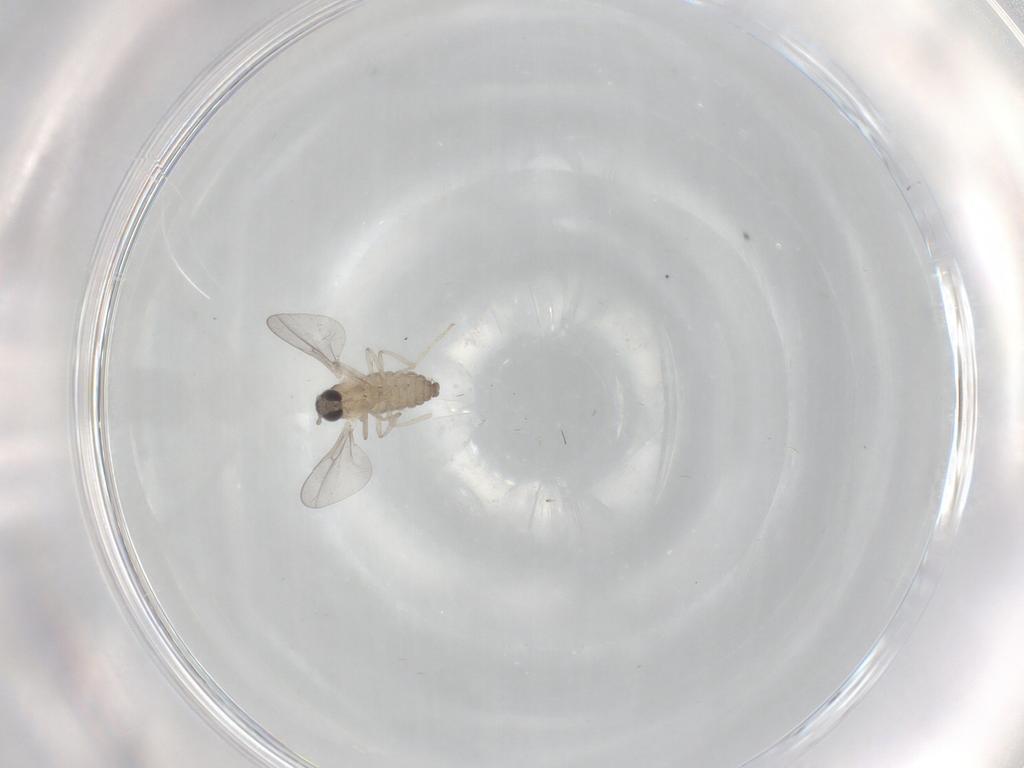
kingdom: Animalia
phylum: Arthropoda
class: Insecta
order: Diptera
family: Cecidomyiidae
